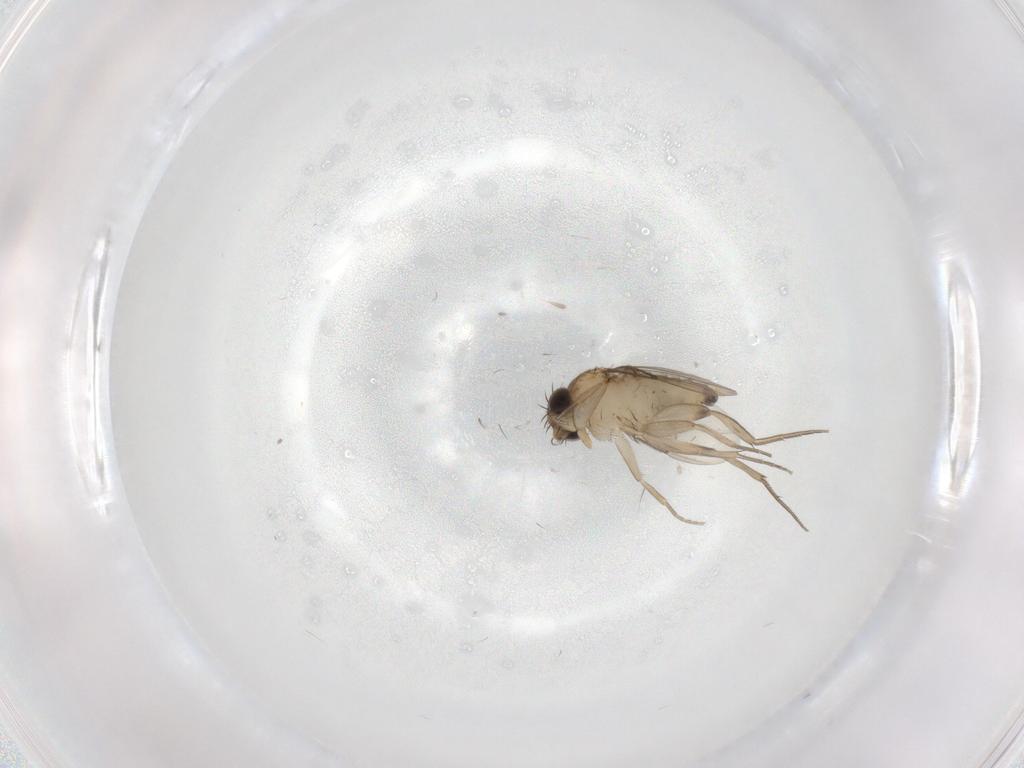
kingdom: Animalia
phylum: Arthropoda
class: Insecta
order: Diptera
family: Phoridae
